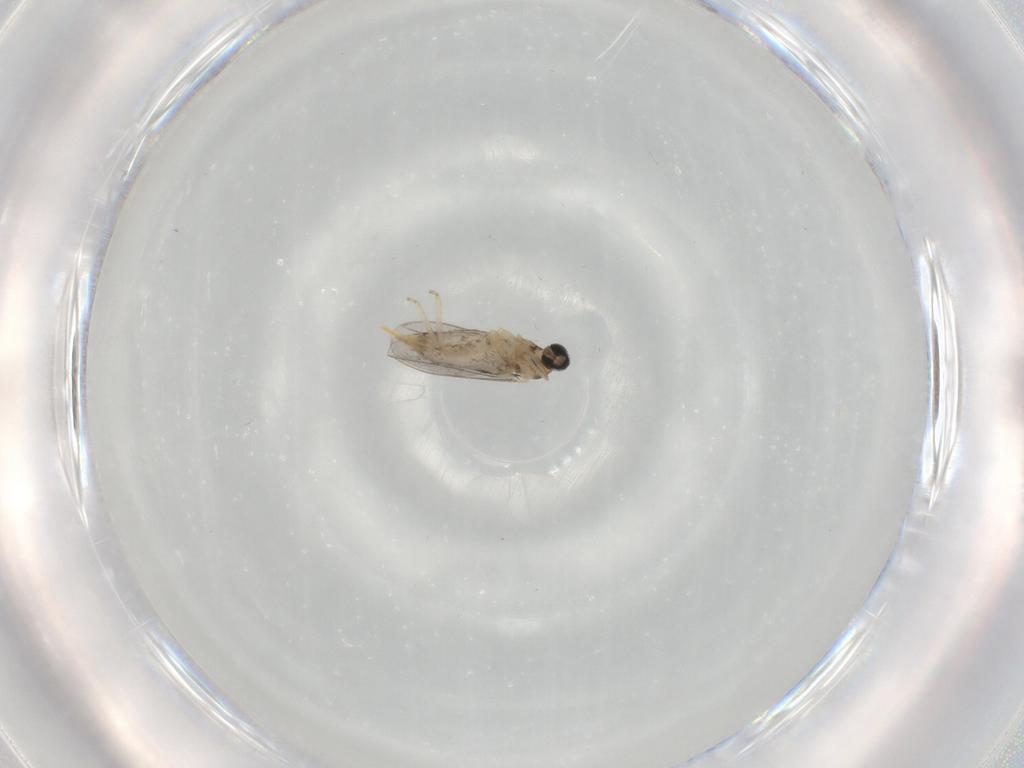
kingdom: Animalia
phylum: Arthropoda
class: Insecta
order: Diptera
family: Cecidomyiidae
